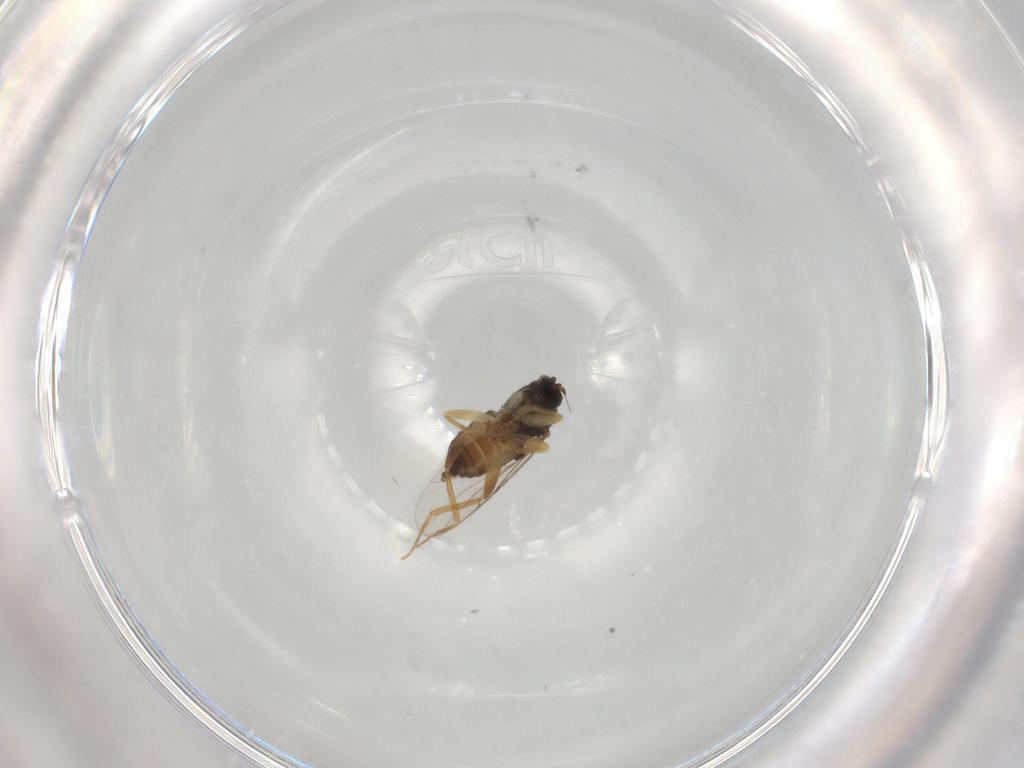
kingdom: Animalia
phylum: Arthropoda
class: Insecta
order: Diptera
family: Hybotidae
